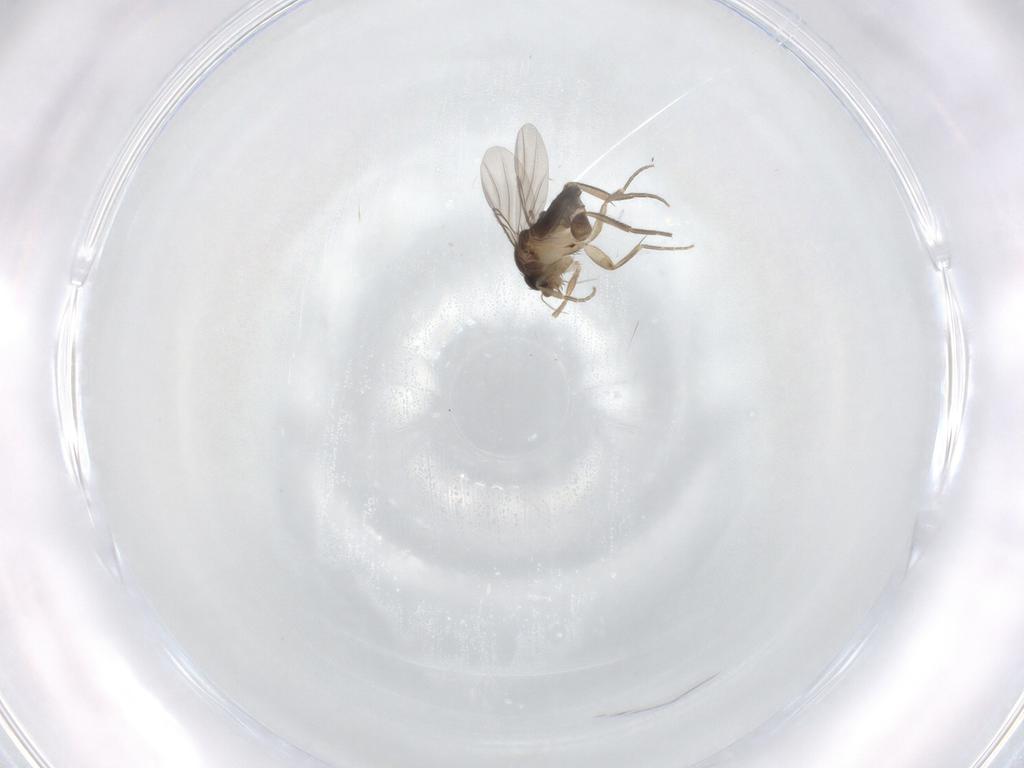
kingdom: Animalia
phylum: Arthropoda
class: Insecta
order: Diptera
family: Phoridae
